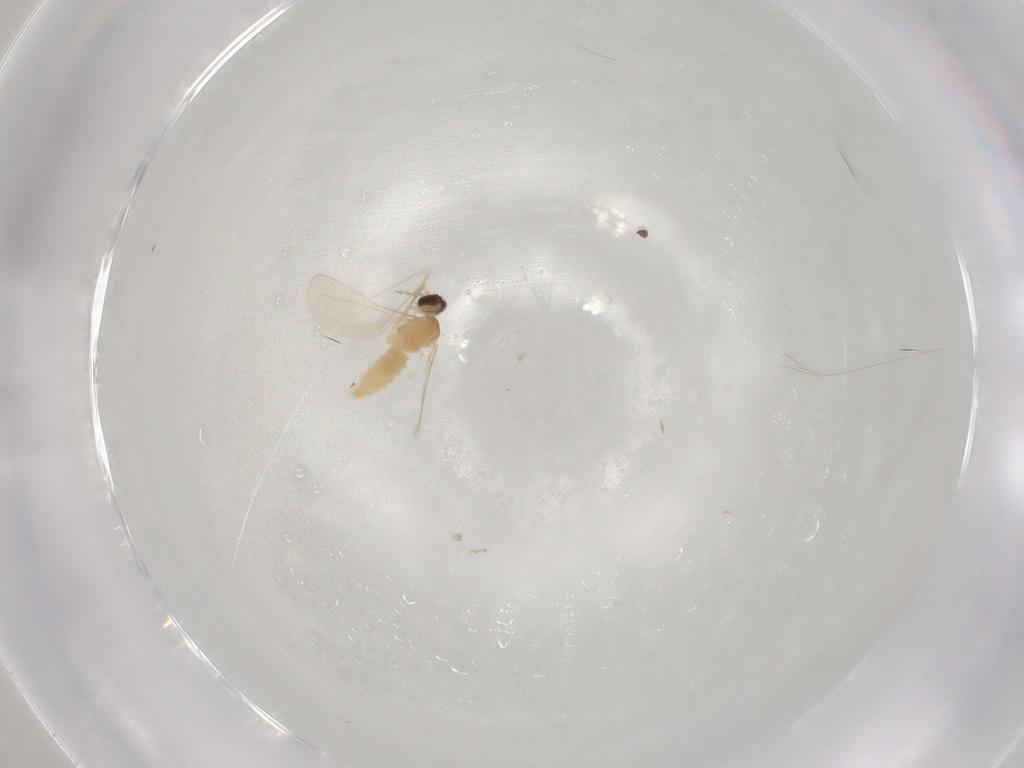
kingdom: Animalia
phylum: Arthropoda
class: Insecta
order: Diptera
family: Cecidomyiidae
